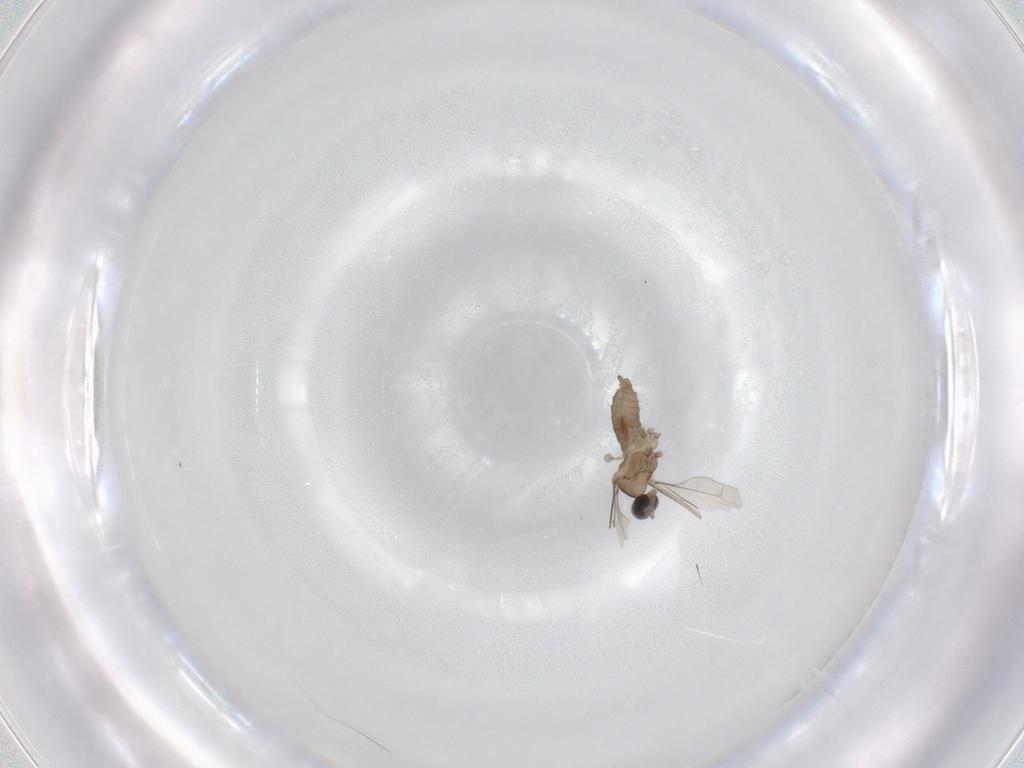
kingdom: Animalia
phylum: Arthropoda
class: Insecta
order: Diptera
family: Cecidomyiidae
